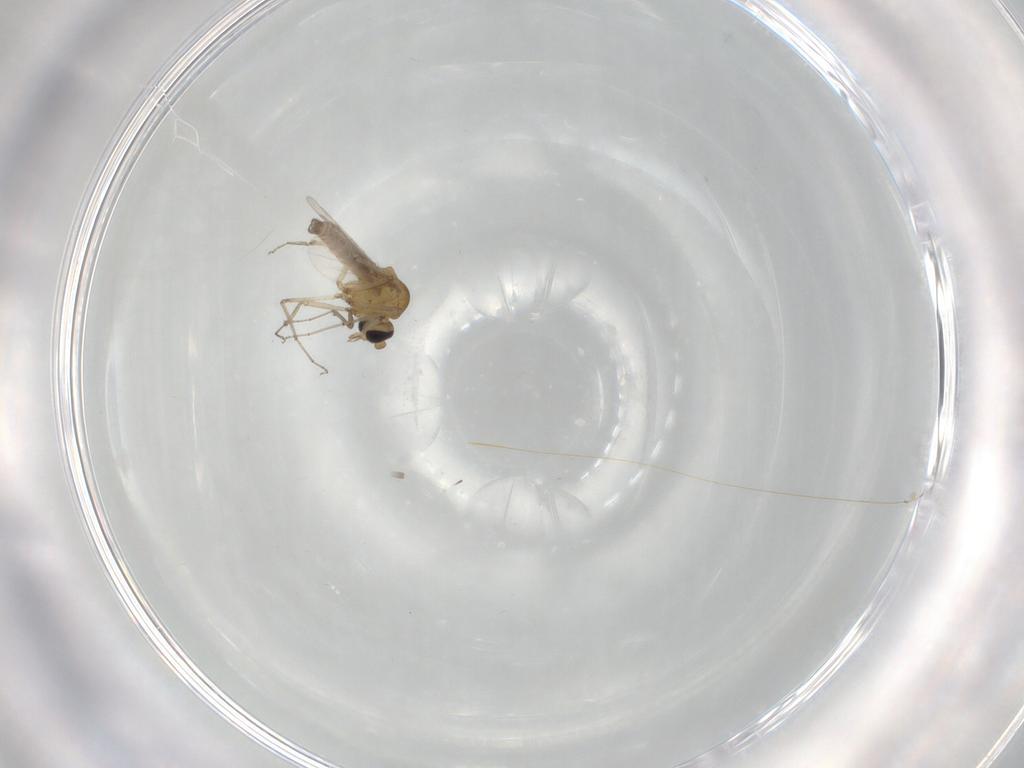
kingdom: Animalia
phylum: Arthropoda
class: Insecta
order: Diptera
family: Ceratopogonidae
